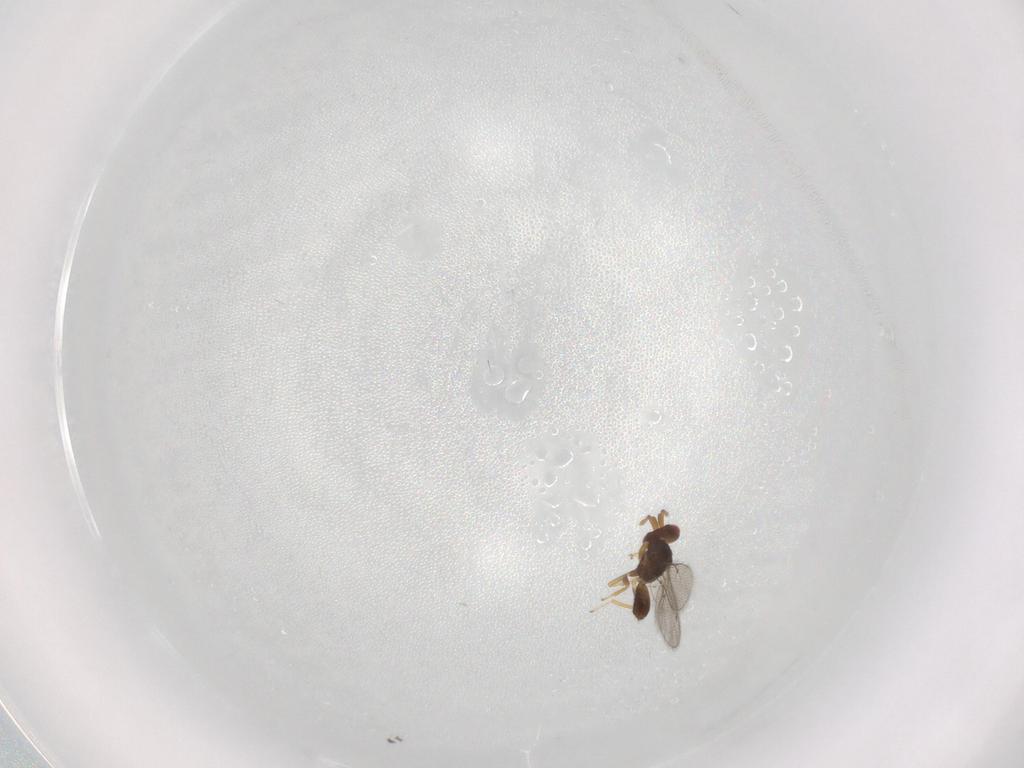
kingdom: Animalia
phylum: Arthropoda
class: Insecta
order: Hymenoptera
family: Eulophidae
